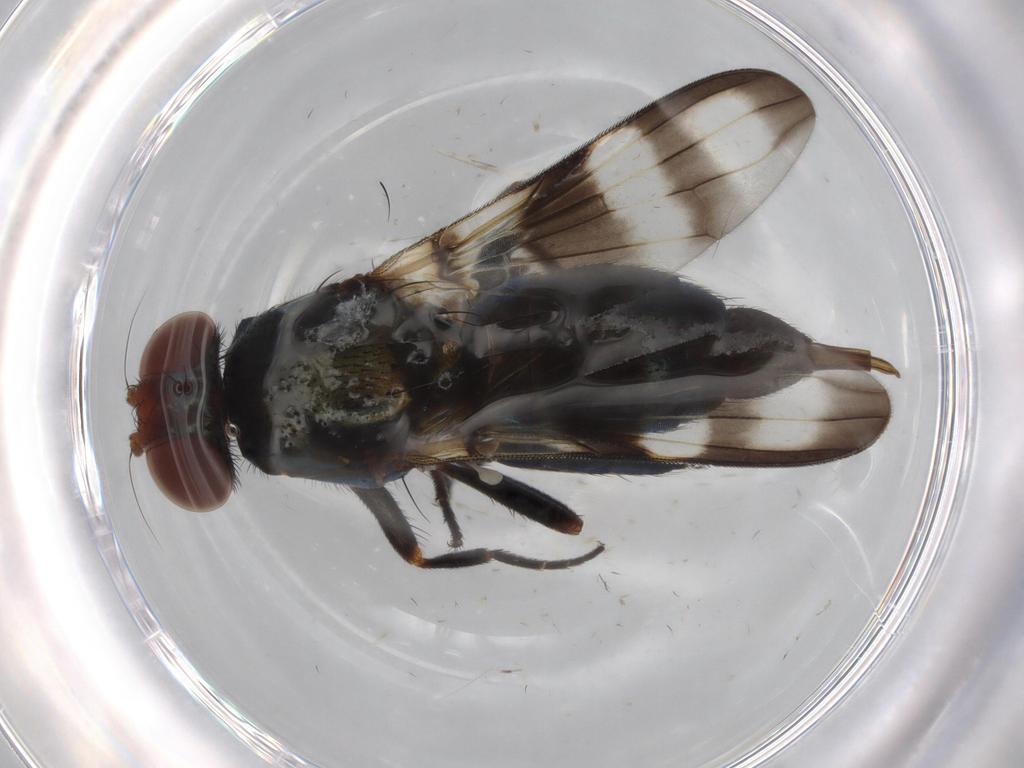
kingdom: Animalia
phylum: Arthropoda
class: Insecta
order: Diptera
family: Ulidiidae
